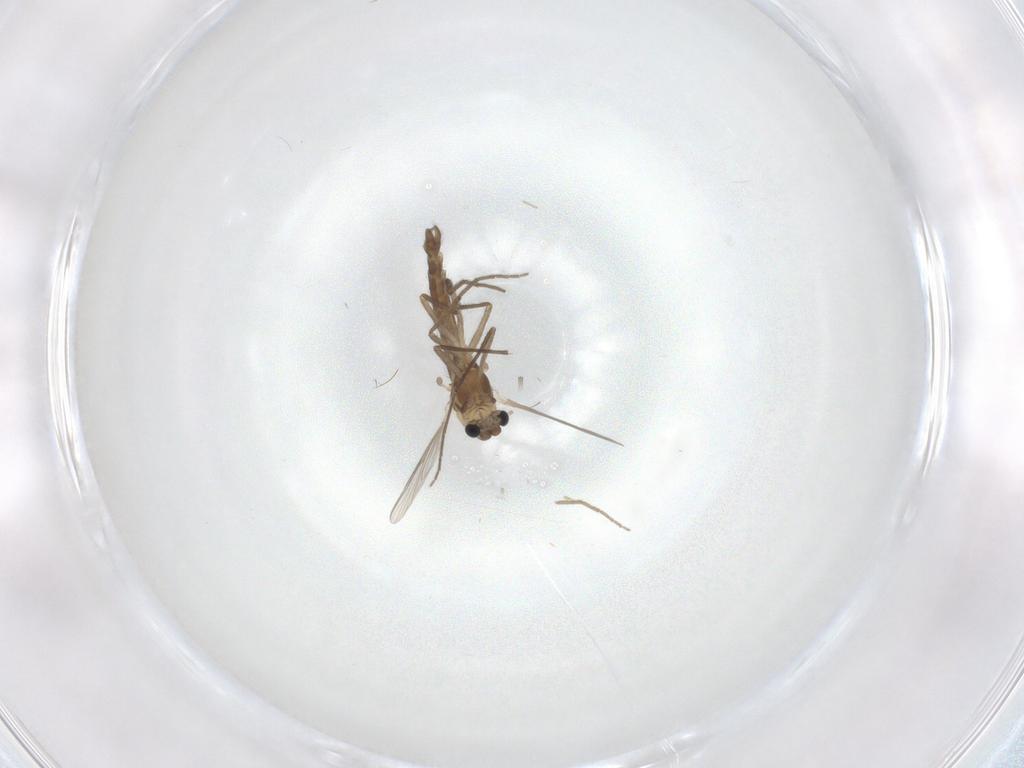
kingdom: Animalia
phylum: Arthropoda
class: Insecta
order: Diptera
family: Chironomidae
